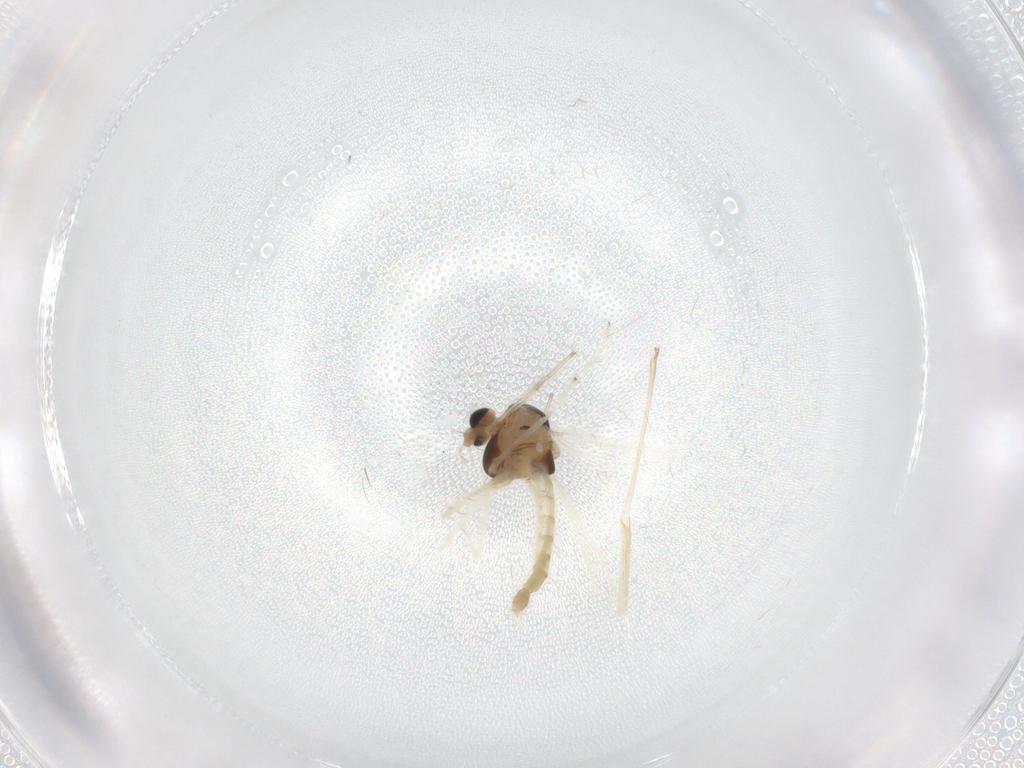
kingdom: Animalia
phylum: Arthropoda
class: Insecta
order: Diptera
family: Chironomidae
